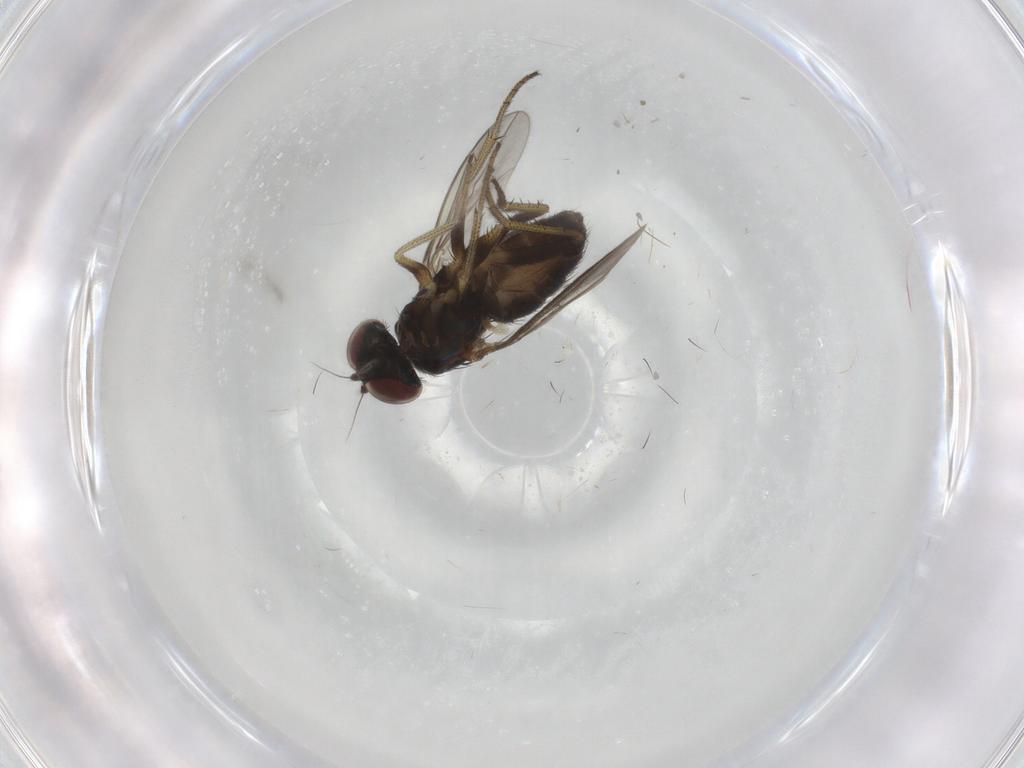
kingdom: Animalia
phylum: Arthropoda
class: Insecta
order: Diptera
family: Dolichopodidae
